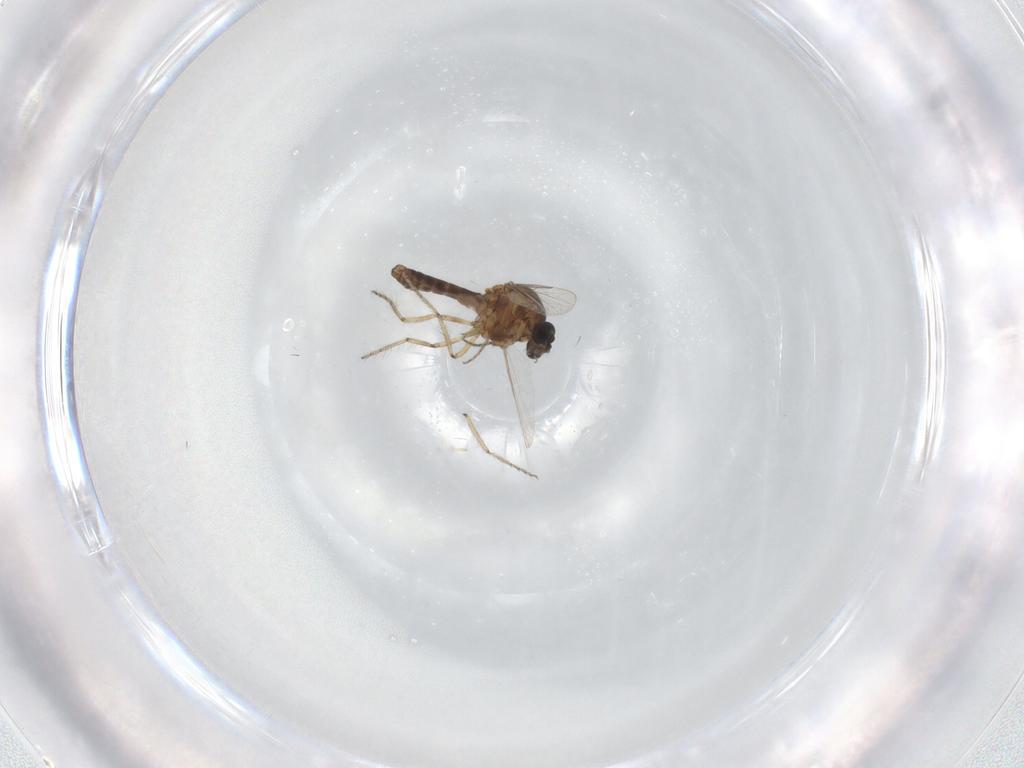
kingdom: Animalia
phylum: Arthropoda
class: Insecta
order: Diptera
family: Ceratopogonidae
